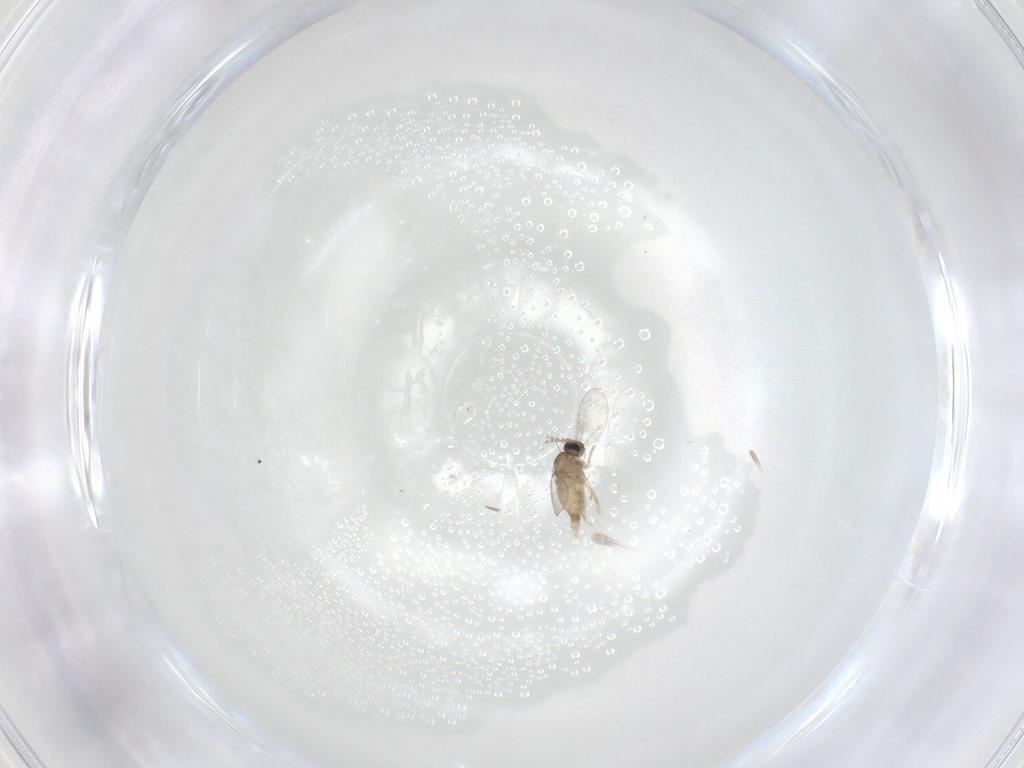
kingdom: Animalia
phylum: Arthropoda
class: Insecta
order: Diptera
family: Cecidomyiidae
